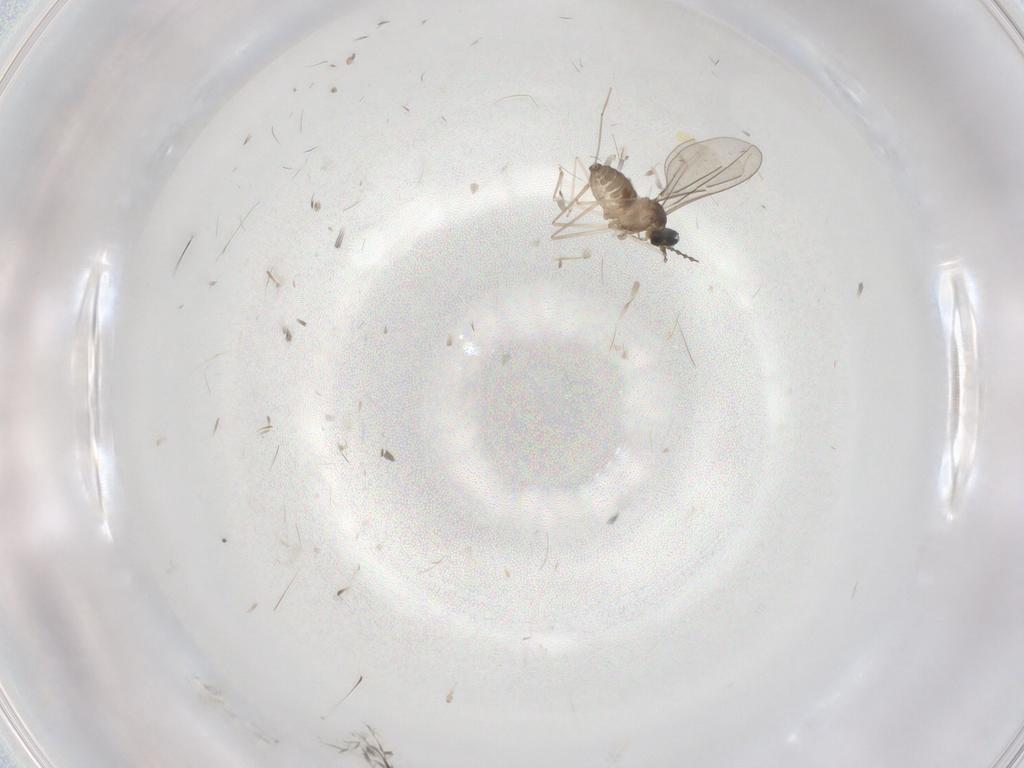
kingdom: Animalia
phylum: Arthropoda
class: Insecta
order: Diptera
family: Cecidomyiidae
